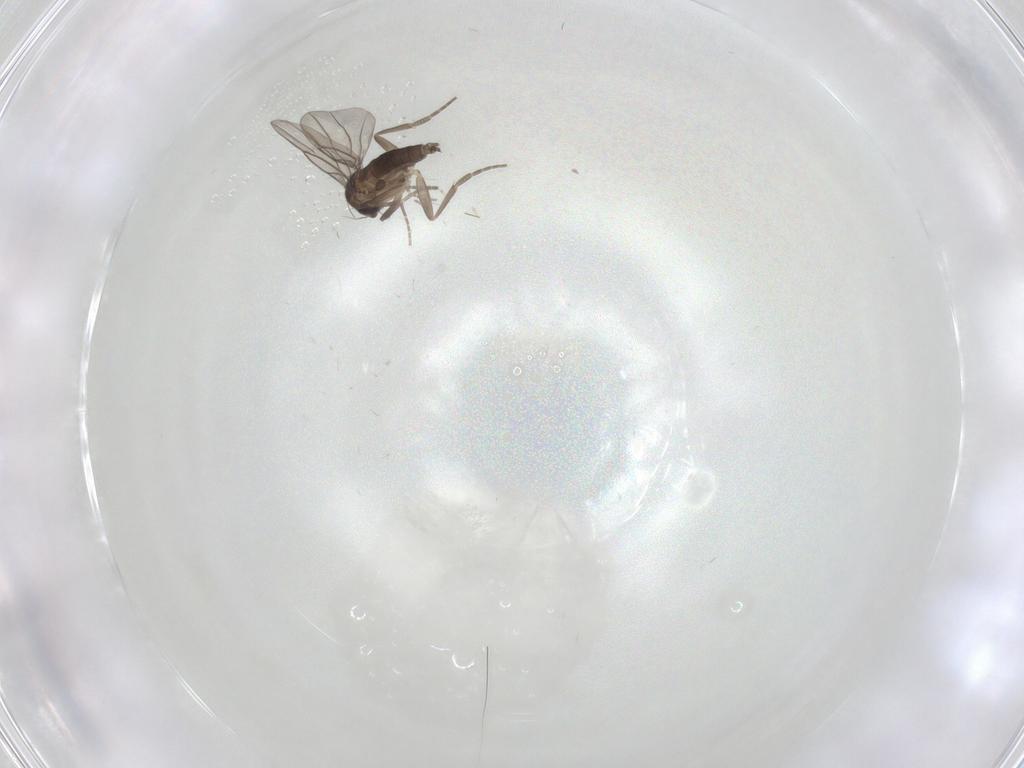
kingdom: Animalia
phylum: Arthropoda
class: Insecta
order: Diptera
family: Phoridae
